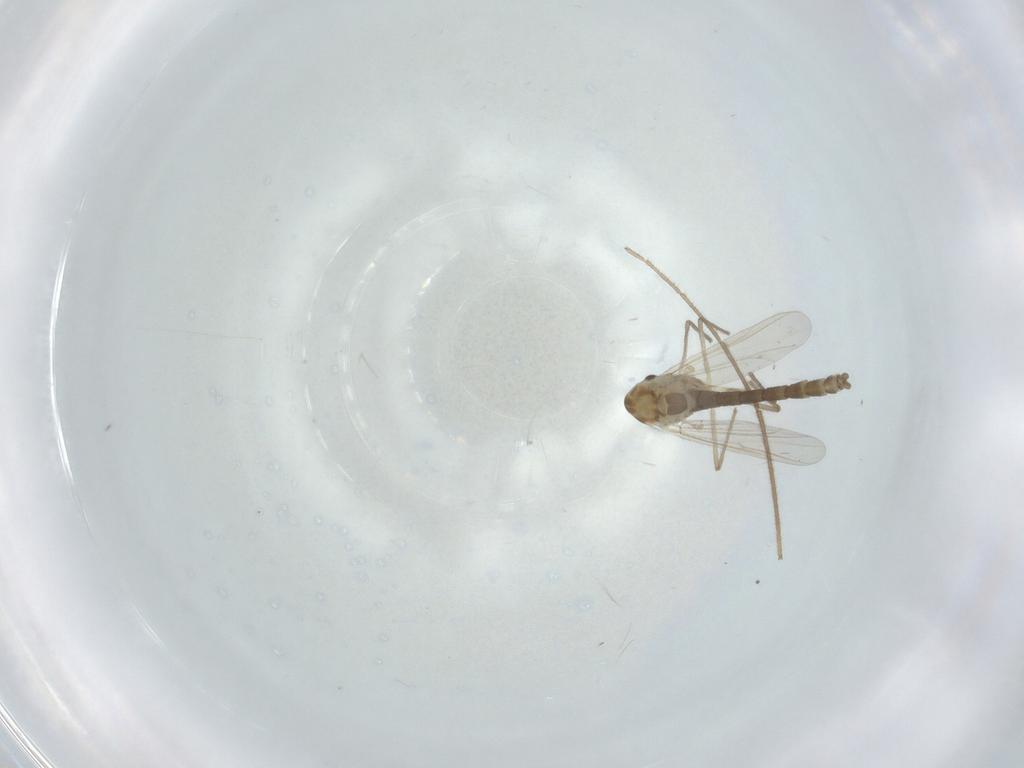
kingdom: Animalia
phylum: Arthropoda
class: Insecta
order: Diptera
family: Chironomidae
